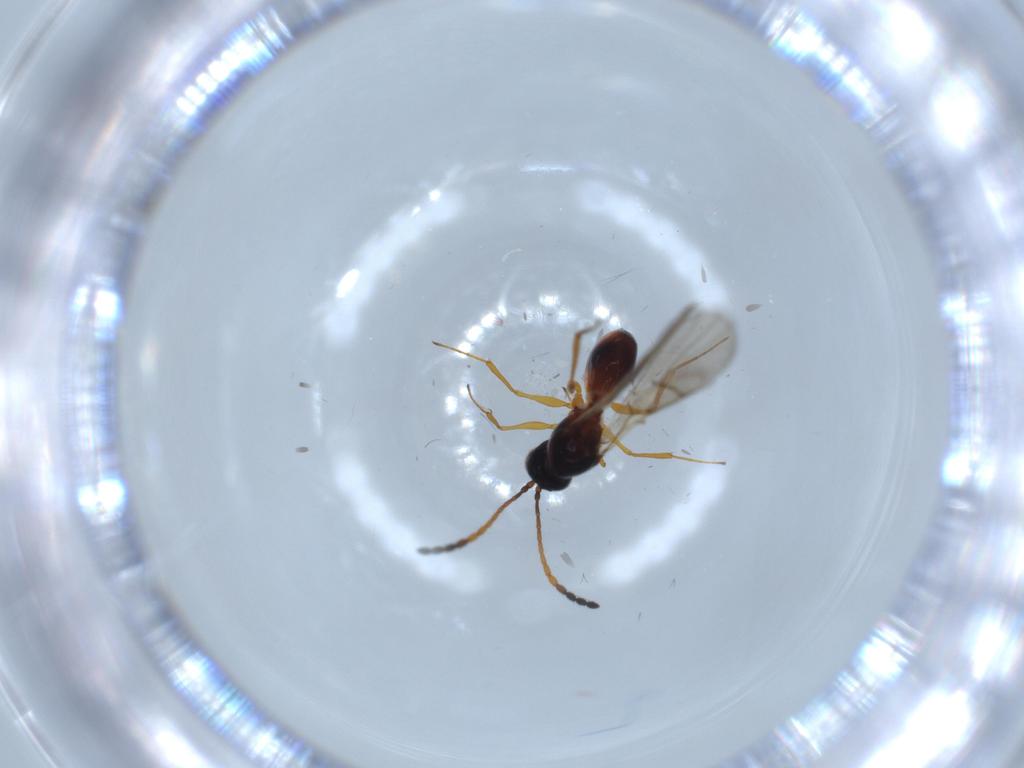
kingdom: Animalia
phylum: Arthropoda
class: Insecta
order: Hymenoptera
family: Figitidae
